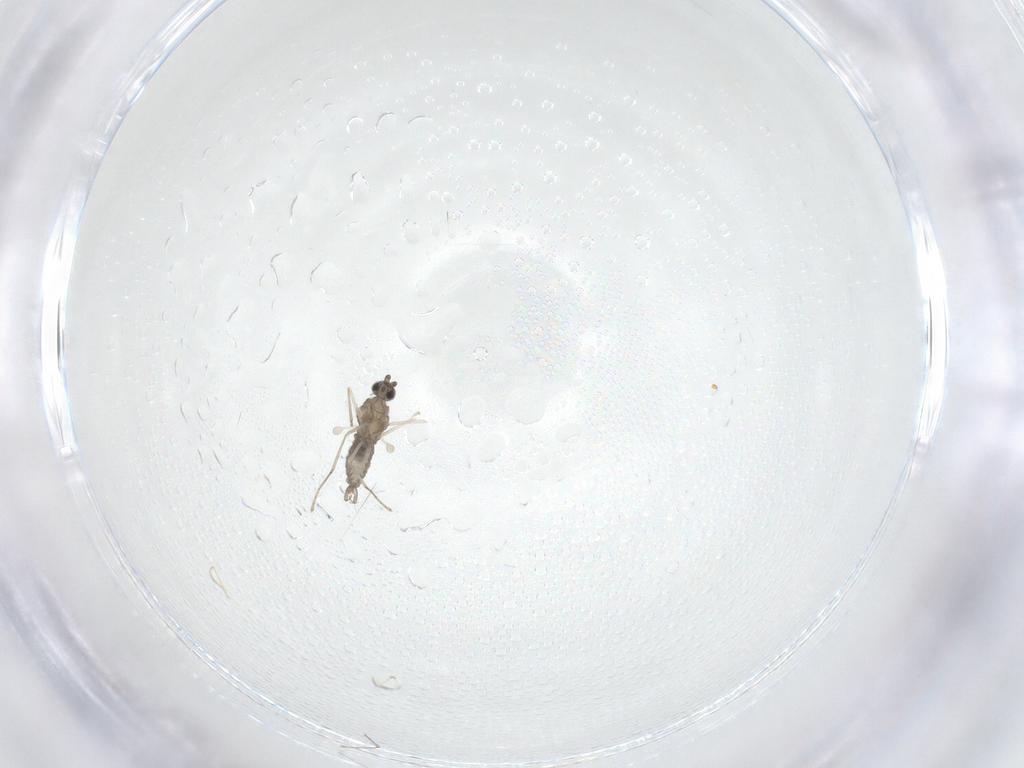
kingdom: Animalia
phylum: Arthropoda
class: Insecta
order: Diptera
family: Cecidomyiidae
